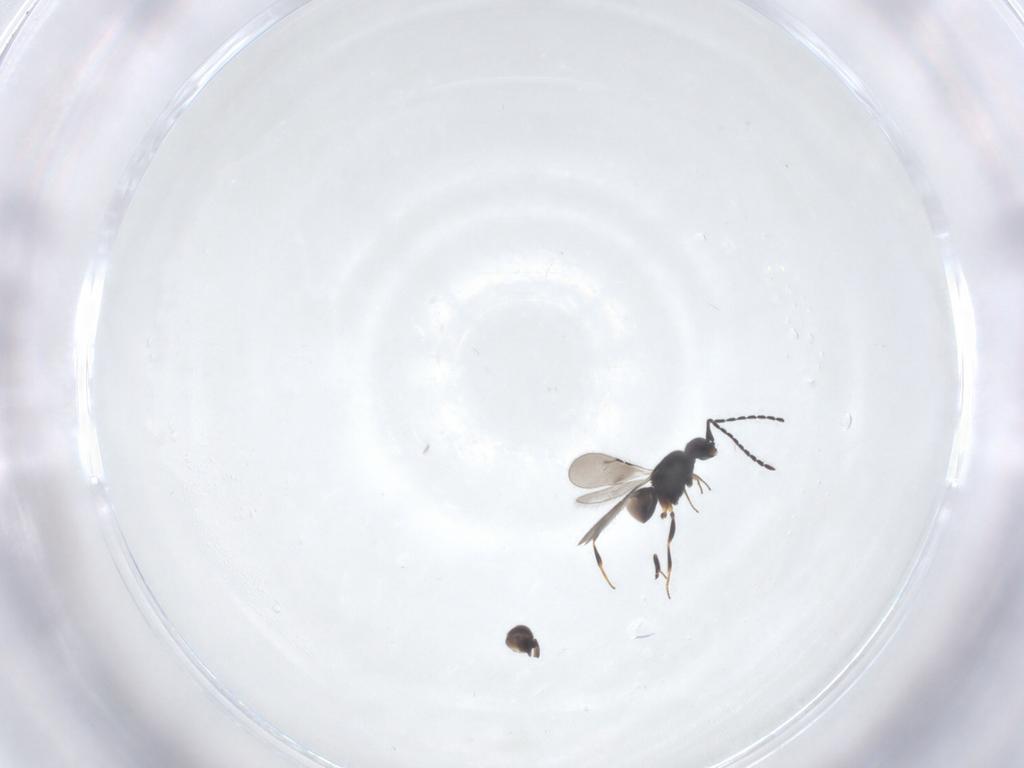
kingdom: Animalia
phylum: Arthropoda
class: Insecta
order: Hymenoptera
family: Ceraphronidae
